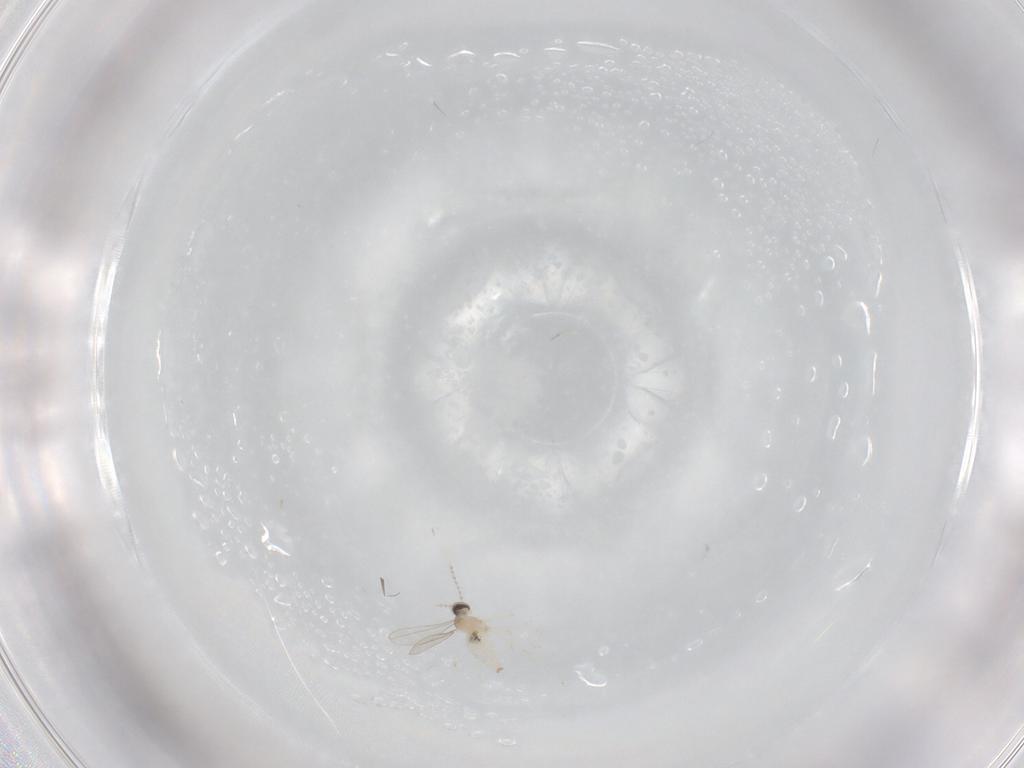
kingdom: Animalia
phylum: Arthropoda
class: Insecta
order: Diptera
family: Cecidomyiidae
